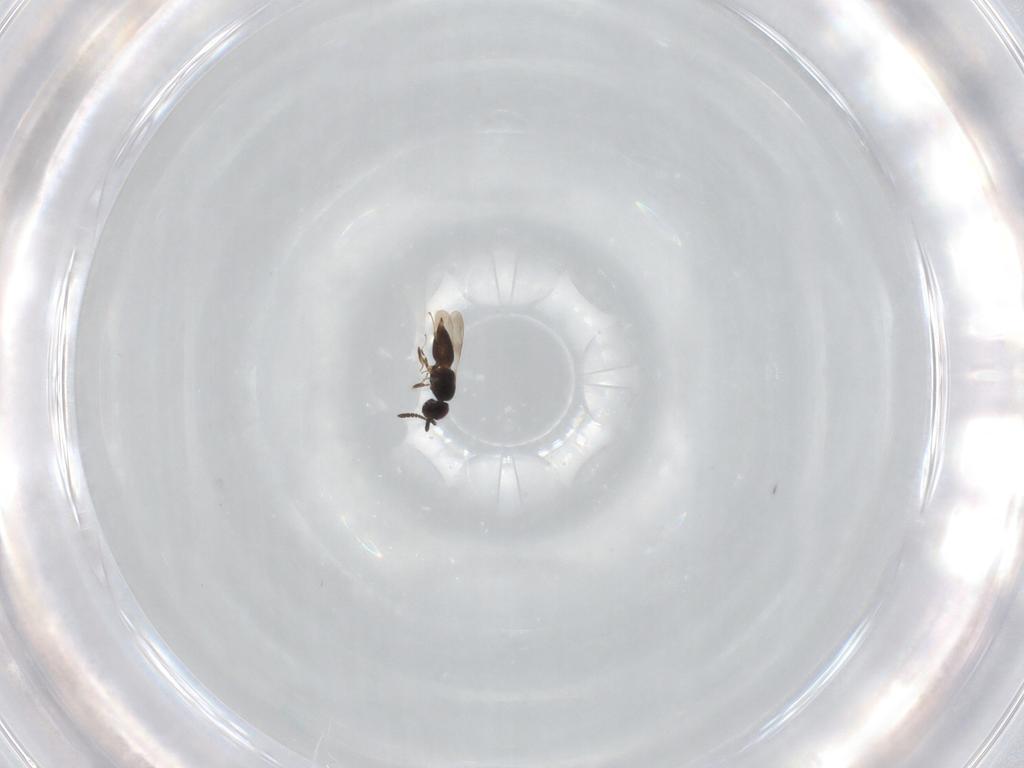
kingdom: Animalia
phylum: Arthropoda
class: Insecta
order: Hymenoptera
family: Scelionidae
